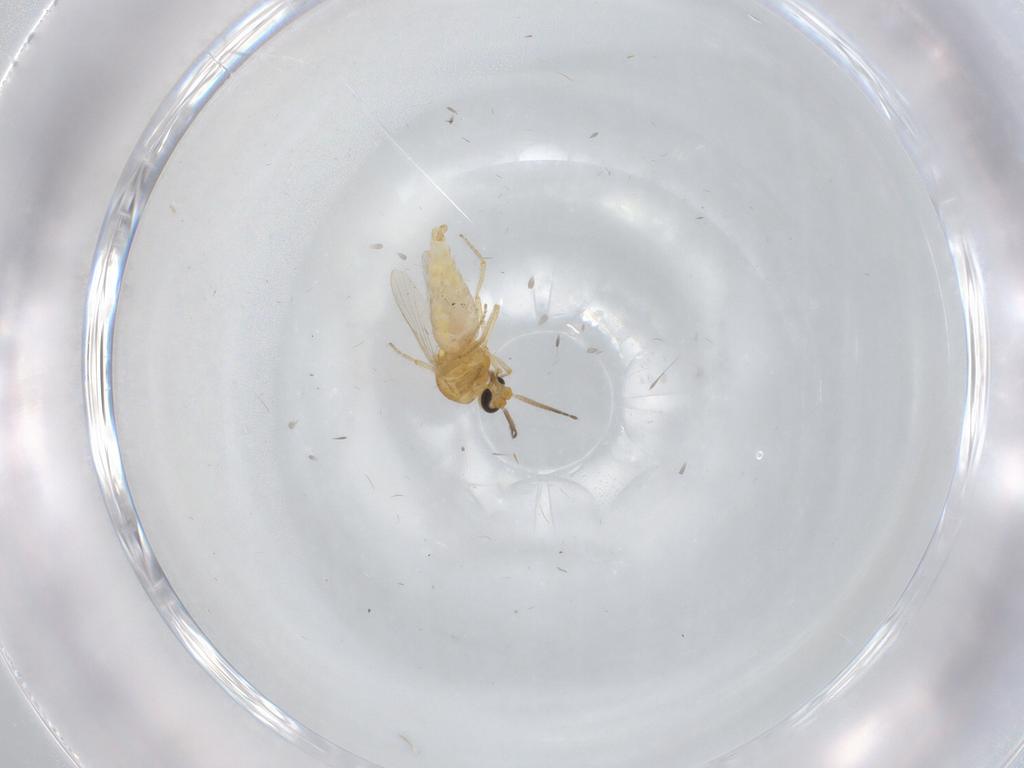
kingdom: Animalia
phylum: Arthropoda
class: Insecta
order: Diptera
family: Ceratopogonidae
